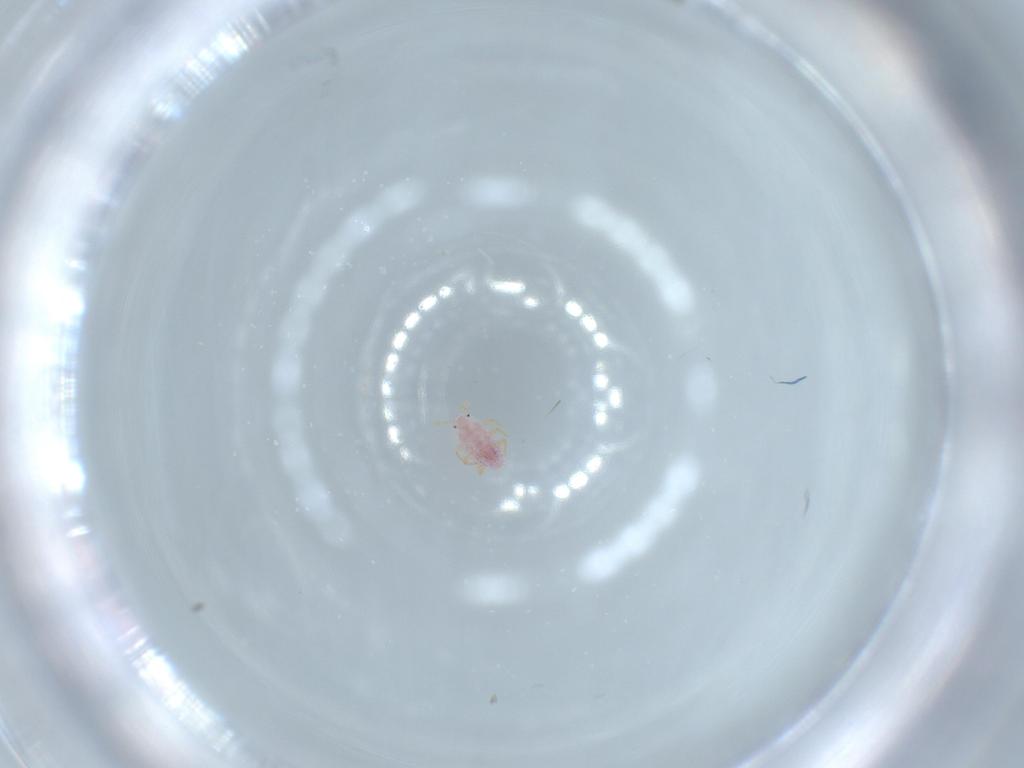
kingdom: Animalia
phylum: Arthropoda
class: Insecta
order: Hemiptera
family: Pseudococcidae
